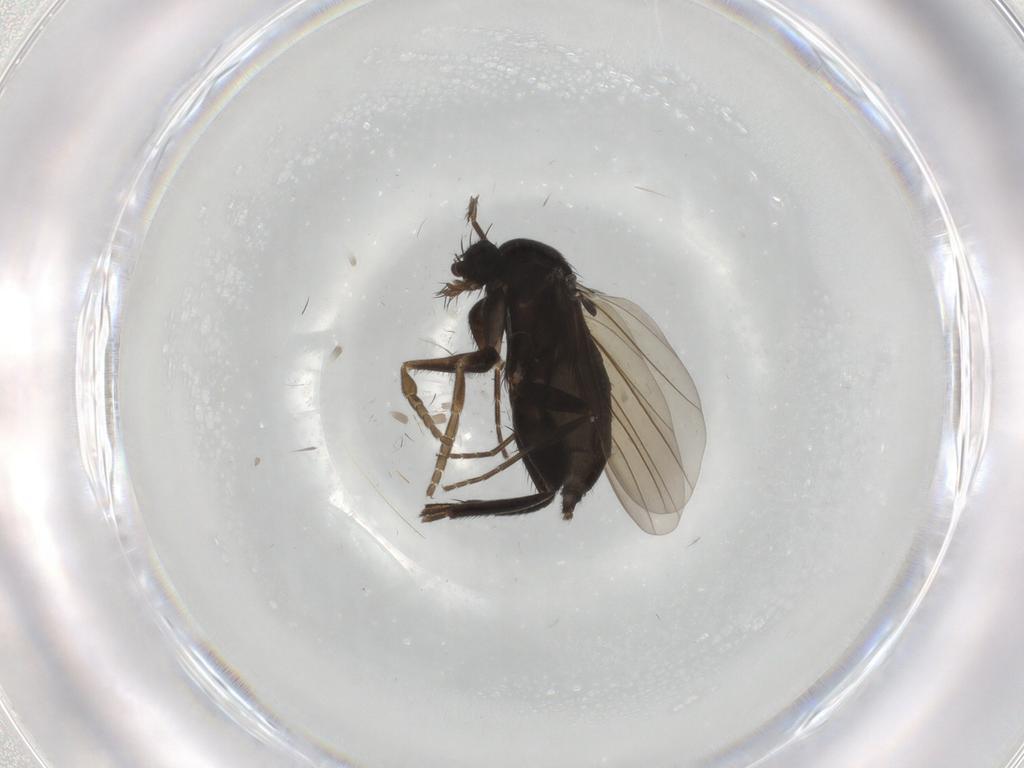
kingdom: Animalia
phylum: Arthropoda
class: Insecta
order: Diptera
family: Phoridae
